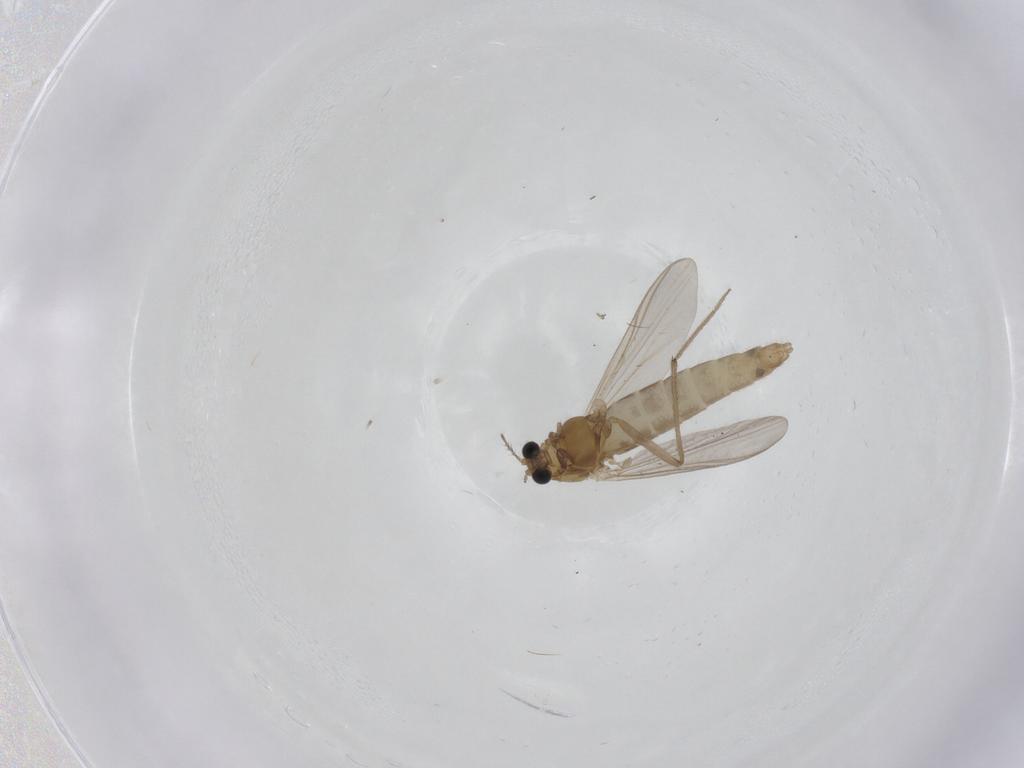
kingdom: Animalia
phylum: Arthropoda
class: Insecta
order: Diptera
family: Chironomidae
